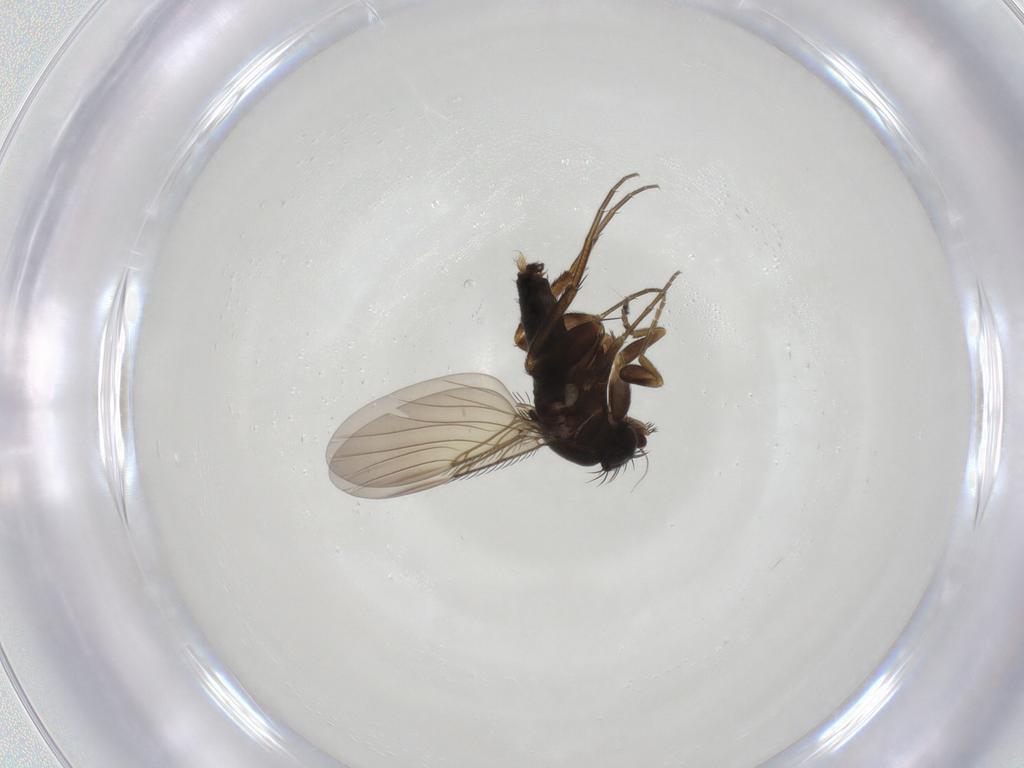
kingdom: Animalia
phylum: Arthropoda
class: Insecta
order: Diptera
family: Phoridae
